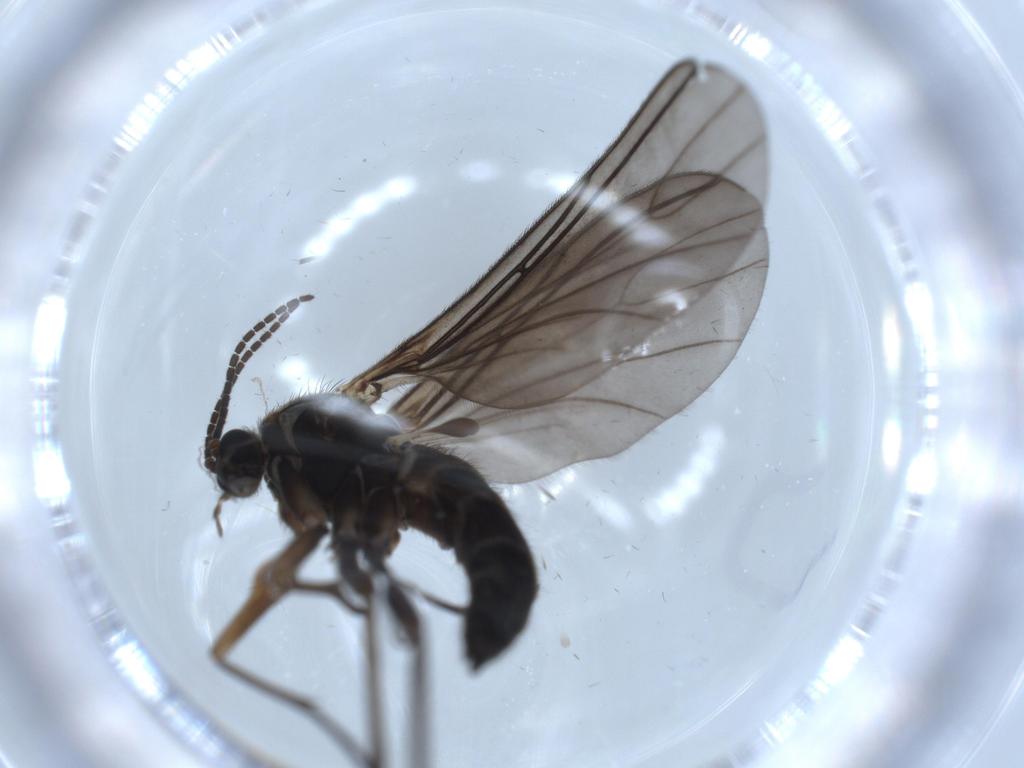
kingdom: Animalia
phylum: Arthropoda
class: Insecta
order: Diptera
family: Sciaridae
